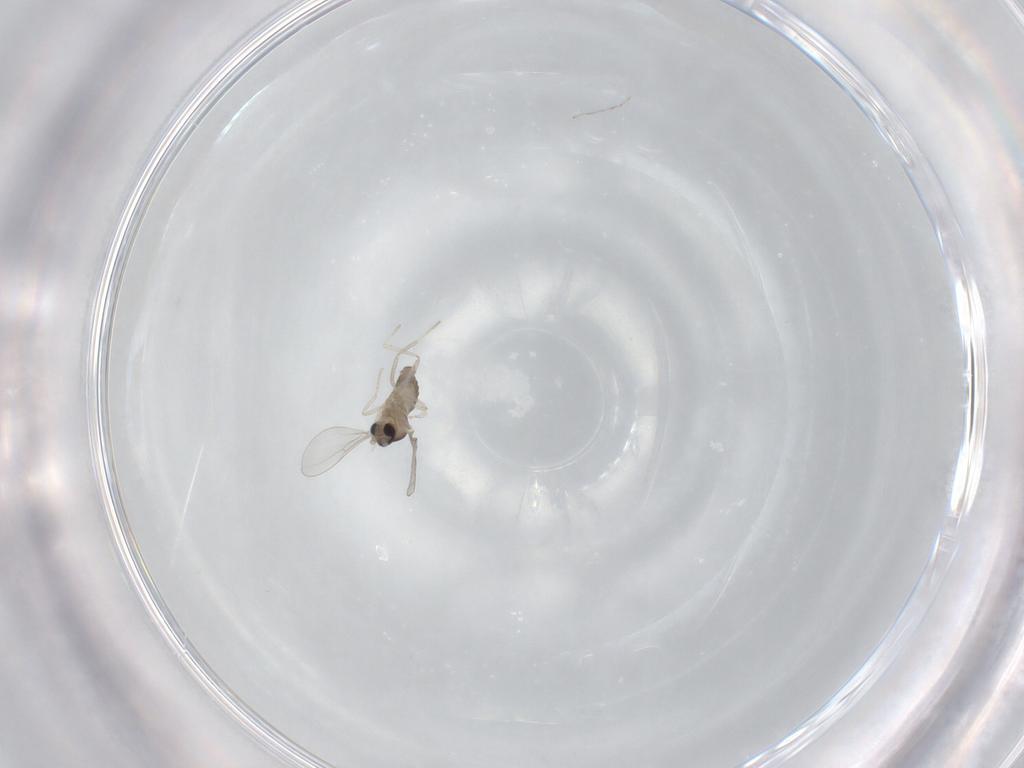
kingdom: Animalia
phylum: Arthropoda
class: Insecta
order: Diptera
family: Cecidomyiidae
